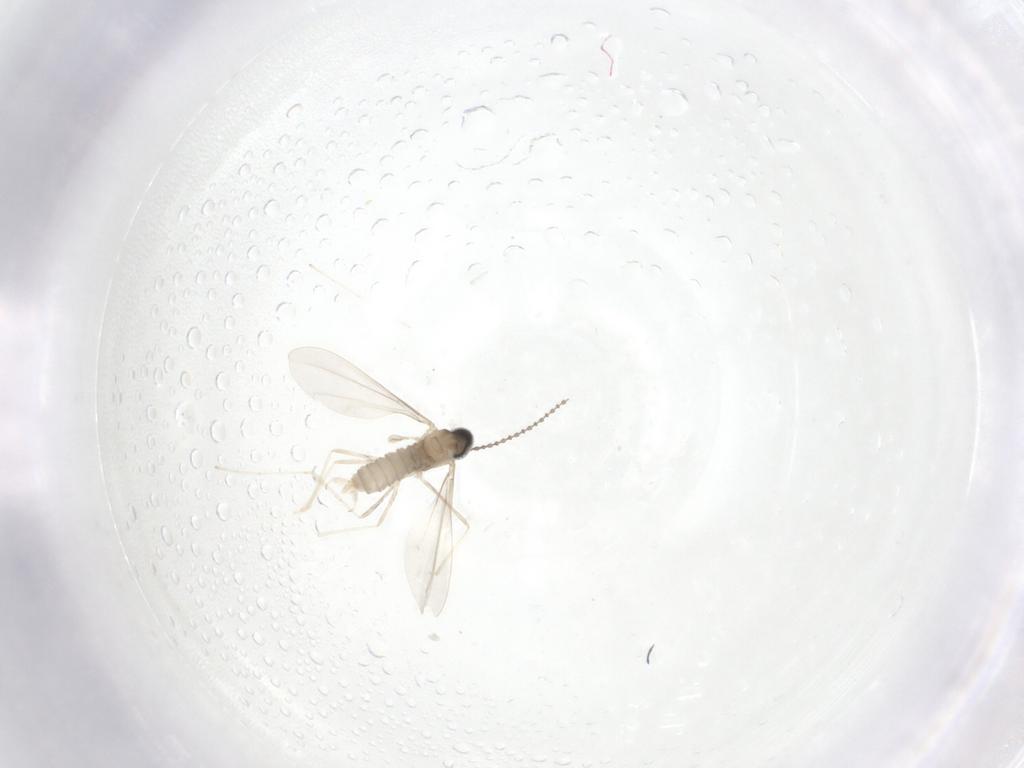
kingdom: Animalia
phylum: Arthropoda
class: Insecta
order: Diptera
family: Cecidomyiidae
